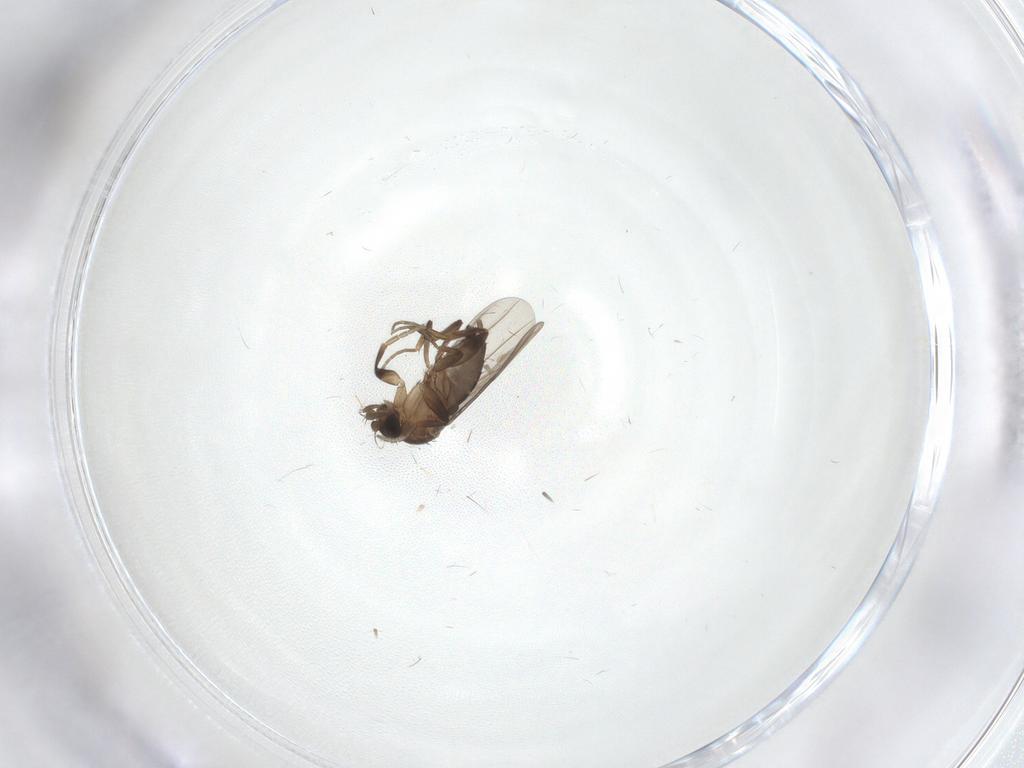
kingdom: Animalia
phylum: Arthropoda
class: Insecta
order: Diptera
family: Phoridae
